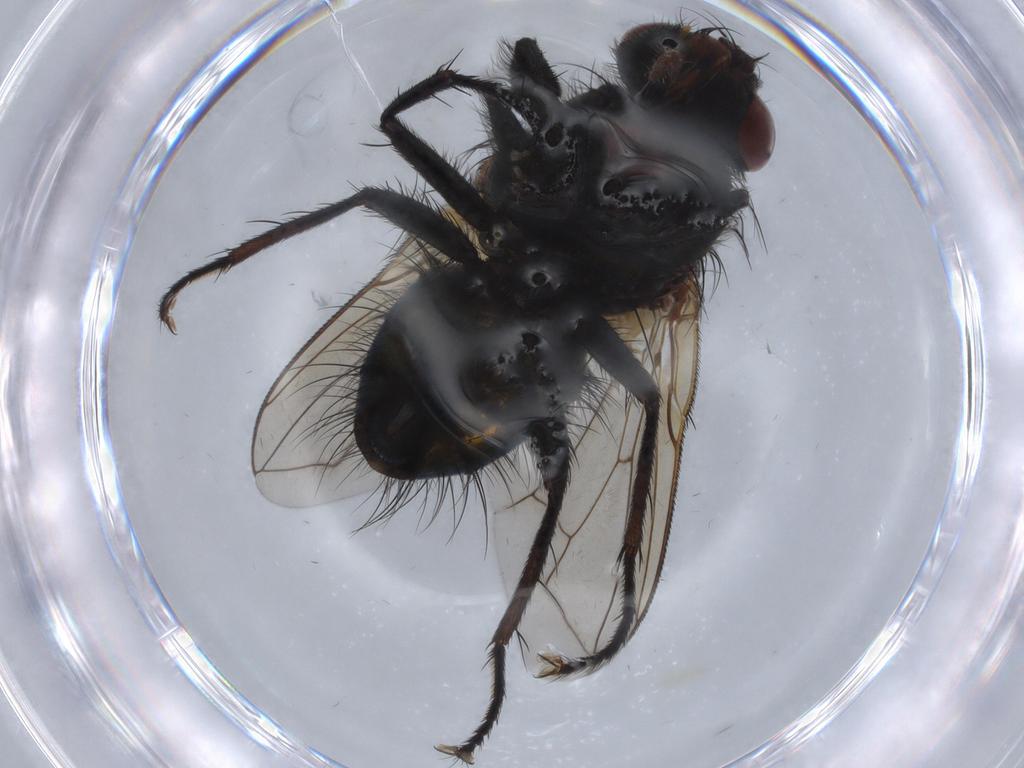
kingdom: Animalia
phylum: Arthropoda
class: Insecta
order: Diptera
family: Calliphoridae
